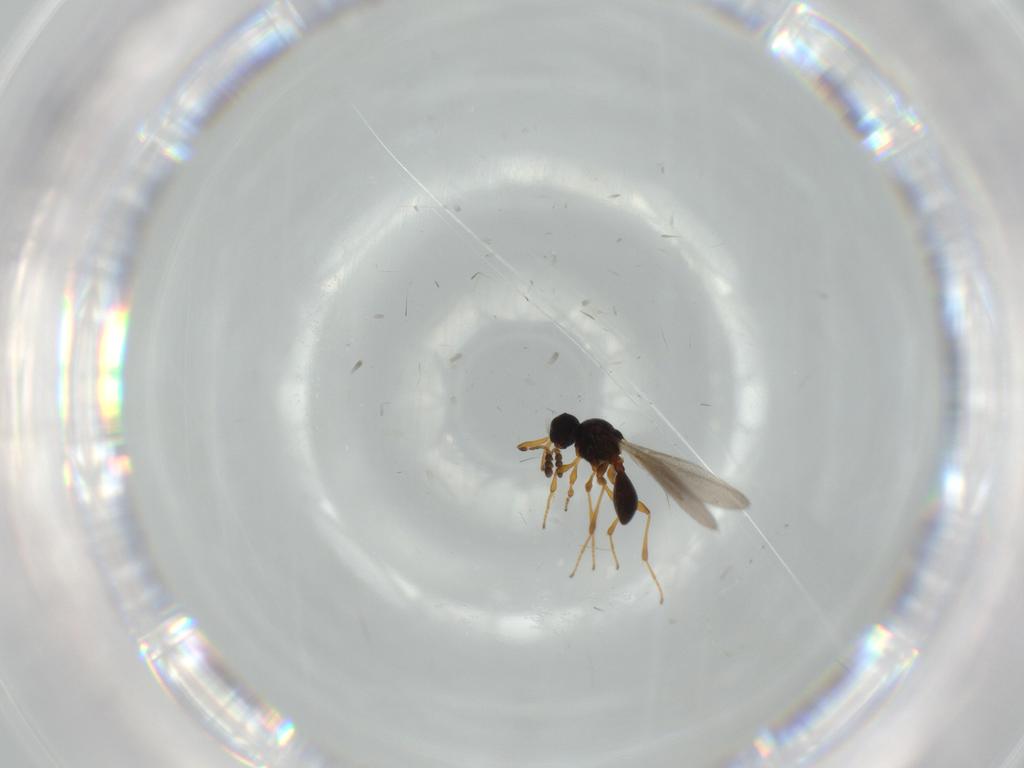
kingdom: Animalia
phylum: Arthropoda
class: Insecta
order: Hymenoptera
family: Platygastridae
